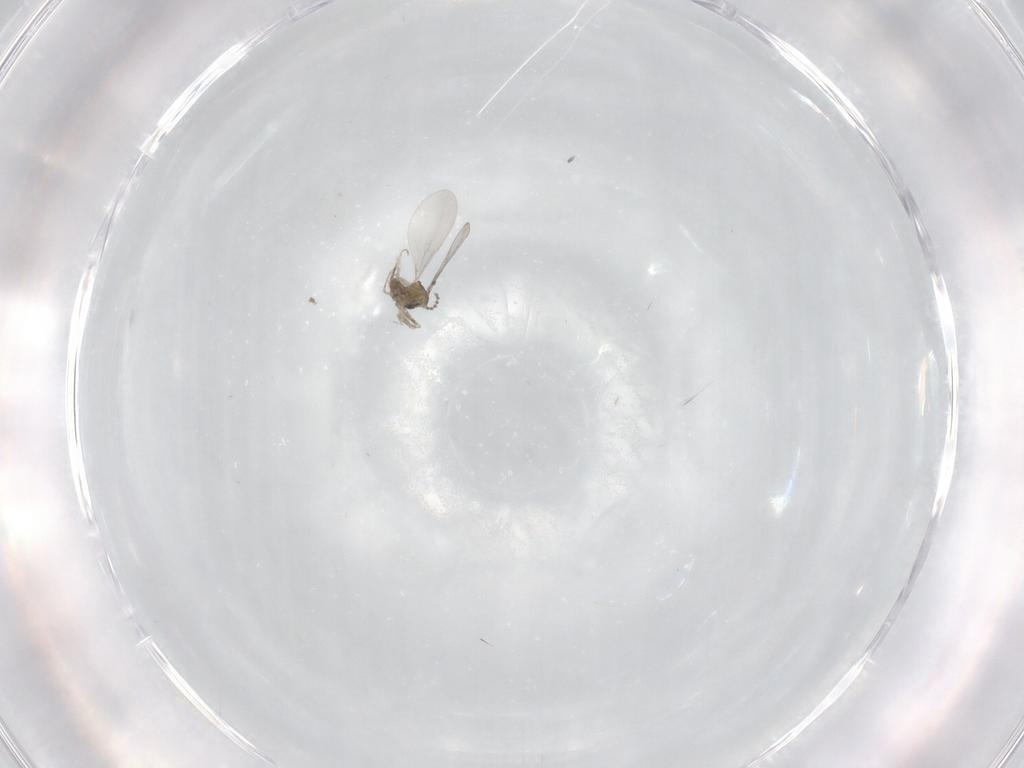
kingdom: Animalia
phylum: Arthropoda
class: Insecta
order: Diptera
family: Cecidomyiidae
